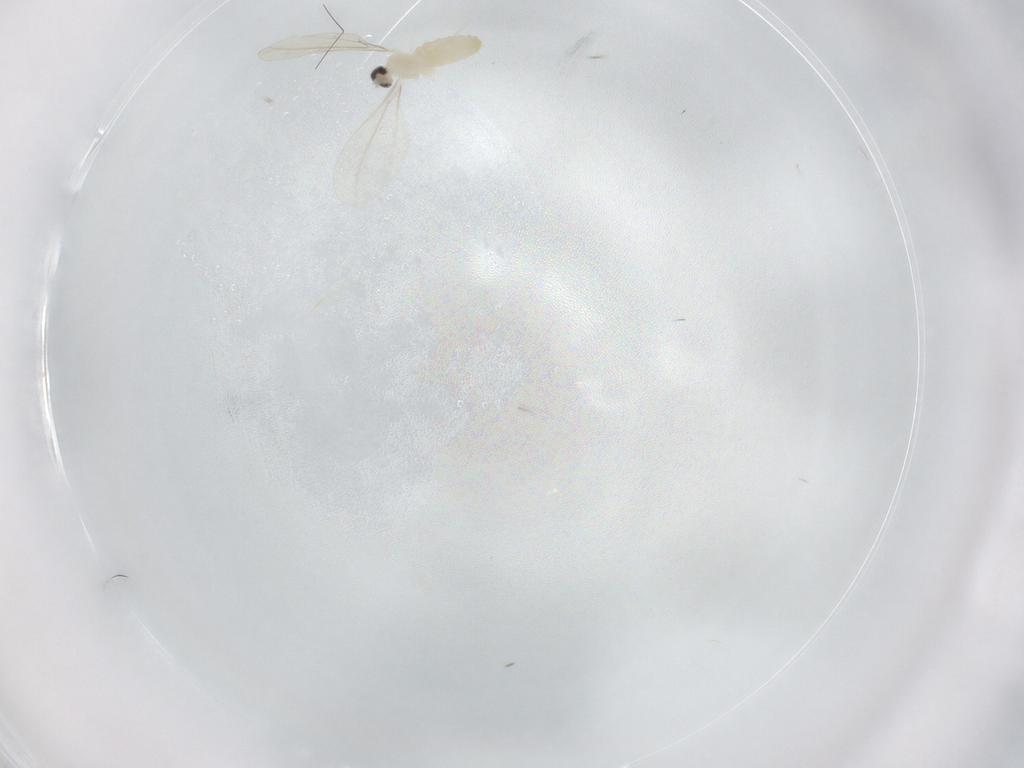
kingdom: Animalia
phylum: Arthropoda
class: Insecta
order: Diptera
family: Cecidomyiidae
